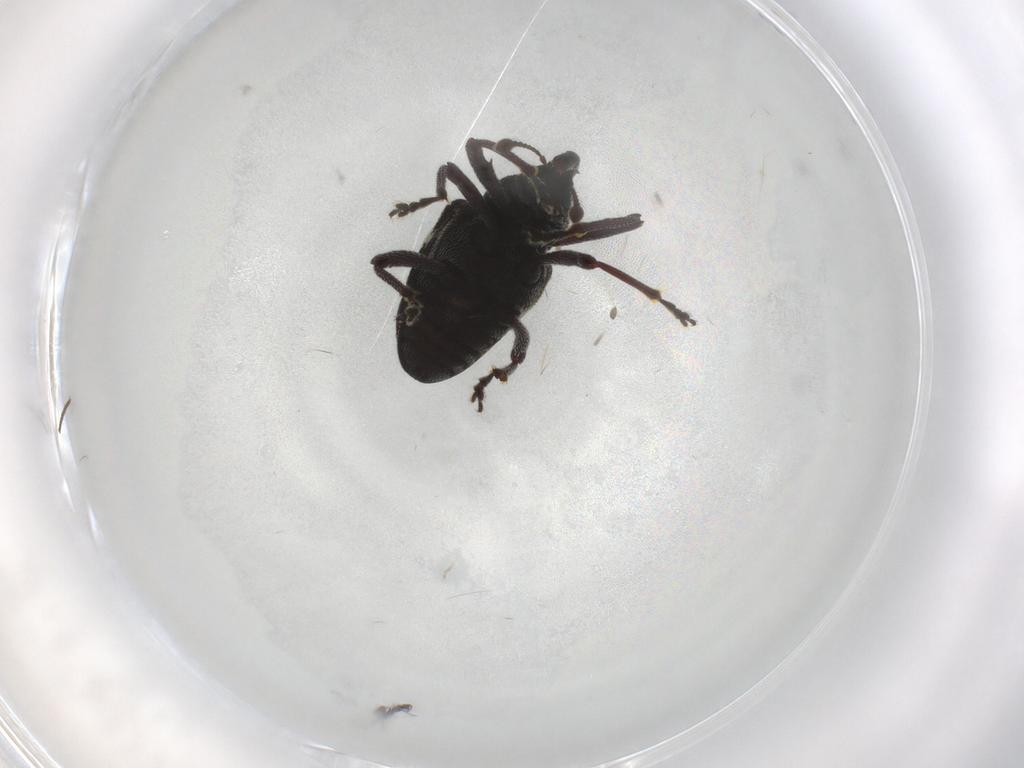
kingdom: Animalia
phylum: Arthropoda
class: Insecta
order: Coleoptera
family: Curculionidae
